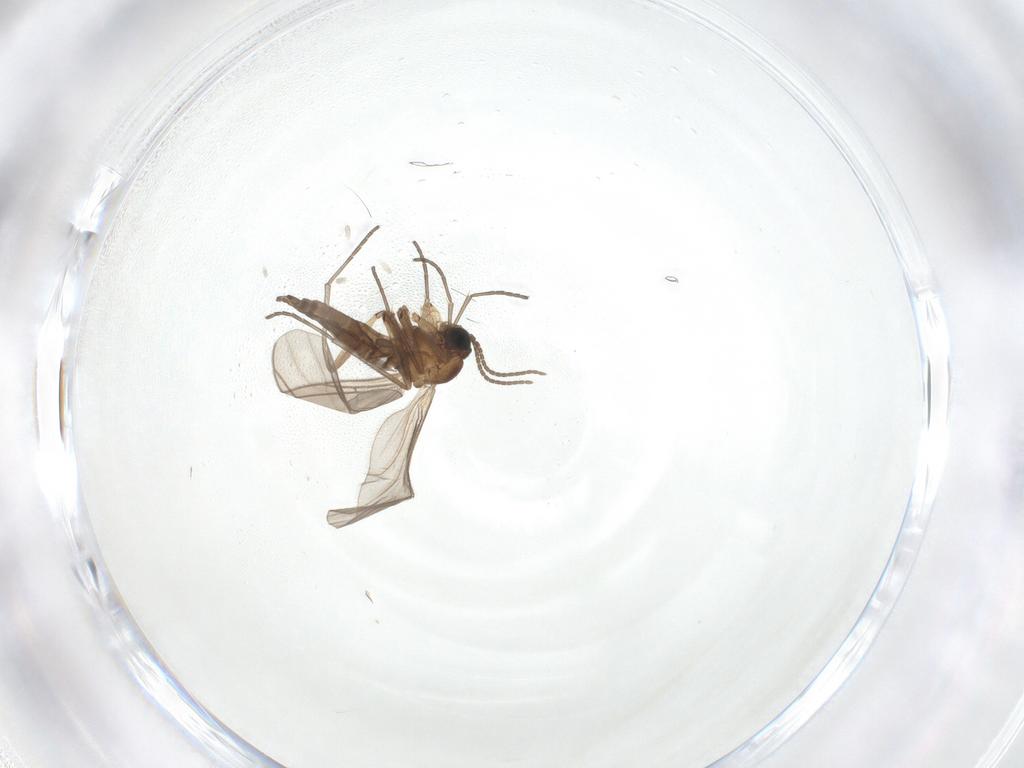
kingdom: Animalia
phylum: Arthropoda
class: Insecta
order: Diptera
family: Sciaridae
